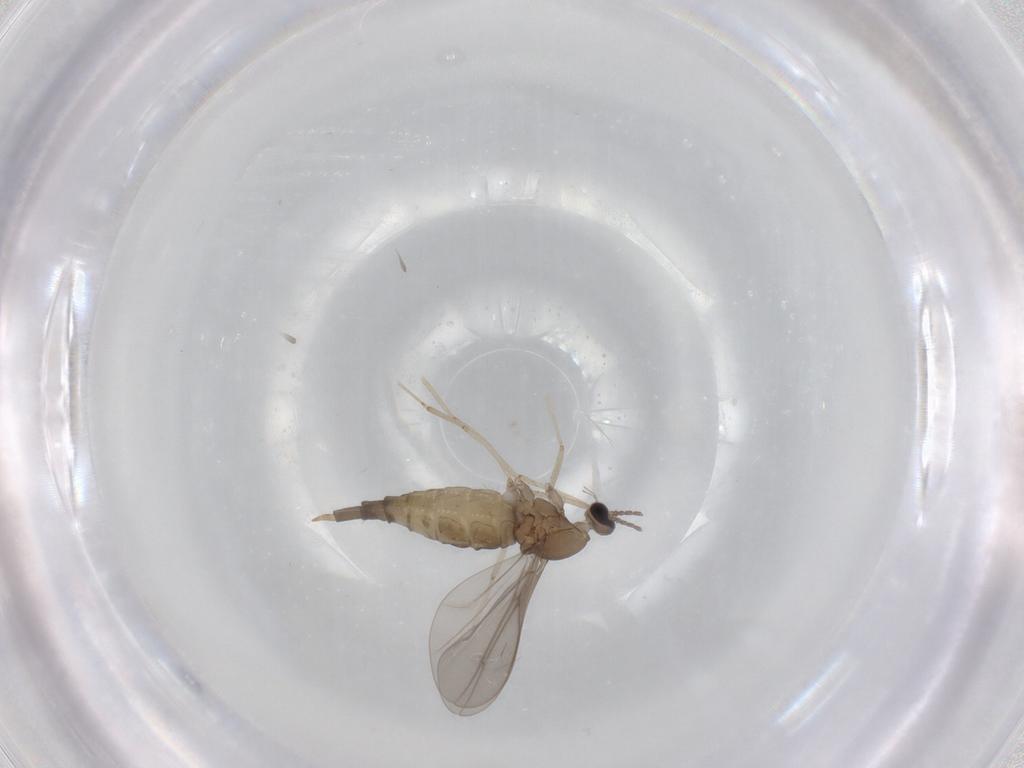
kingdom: Animalia
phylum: Arthropoda
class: Insecta
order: Diptera
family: Cecidomyiidae
